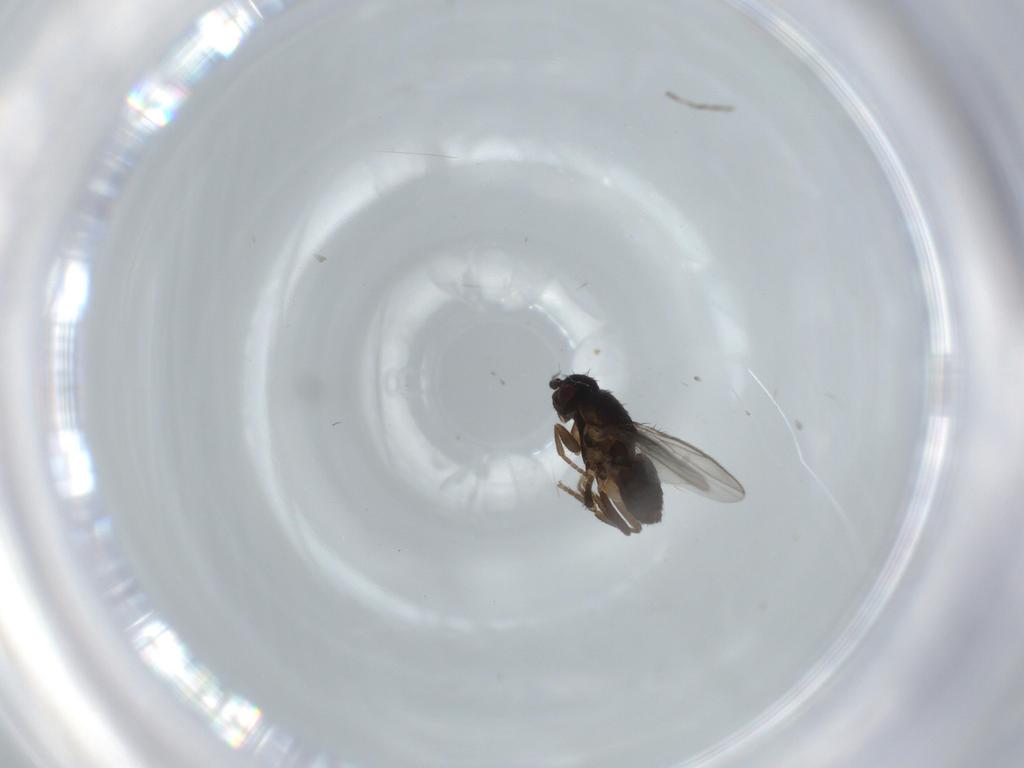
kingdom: Animalia
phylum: Arthropoda
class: Insecta
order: Diptera
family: Sphaeroceridae
